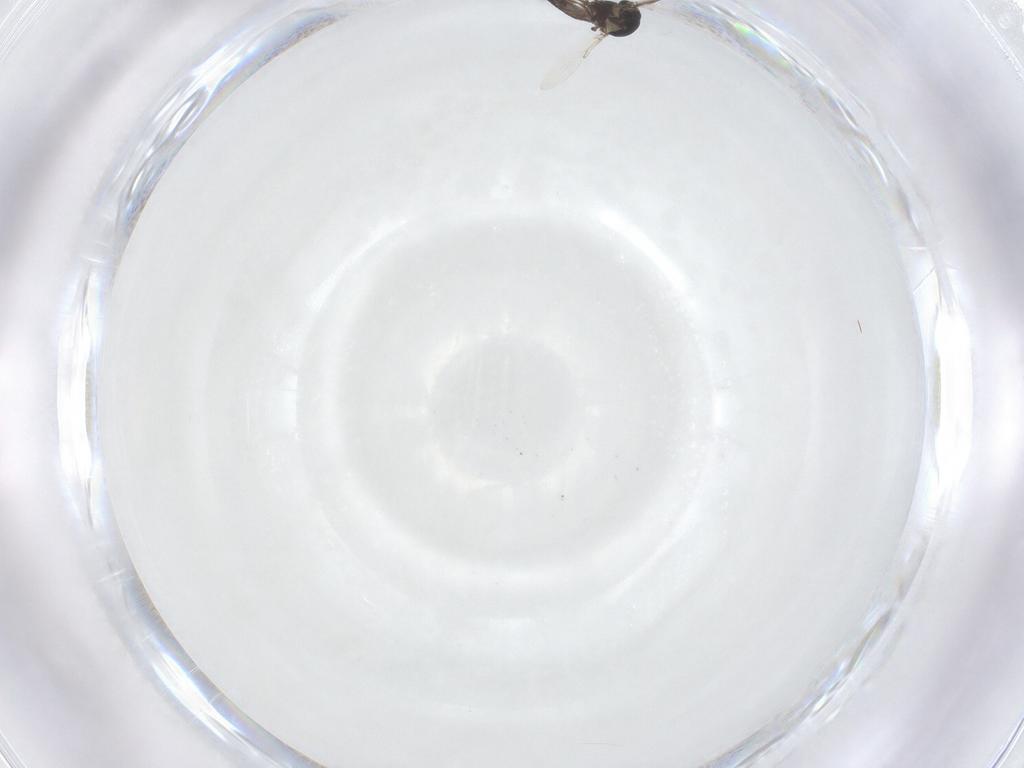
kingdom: Animalia
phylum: Arthropoda
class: Insecta
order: Diptera
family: Ceratopogonidae
